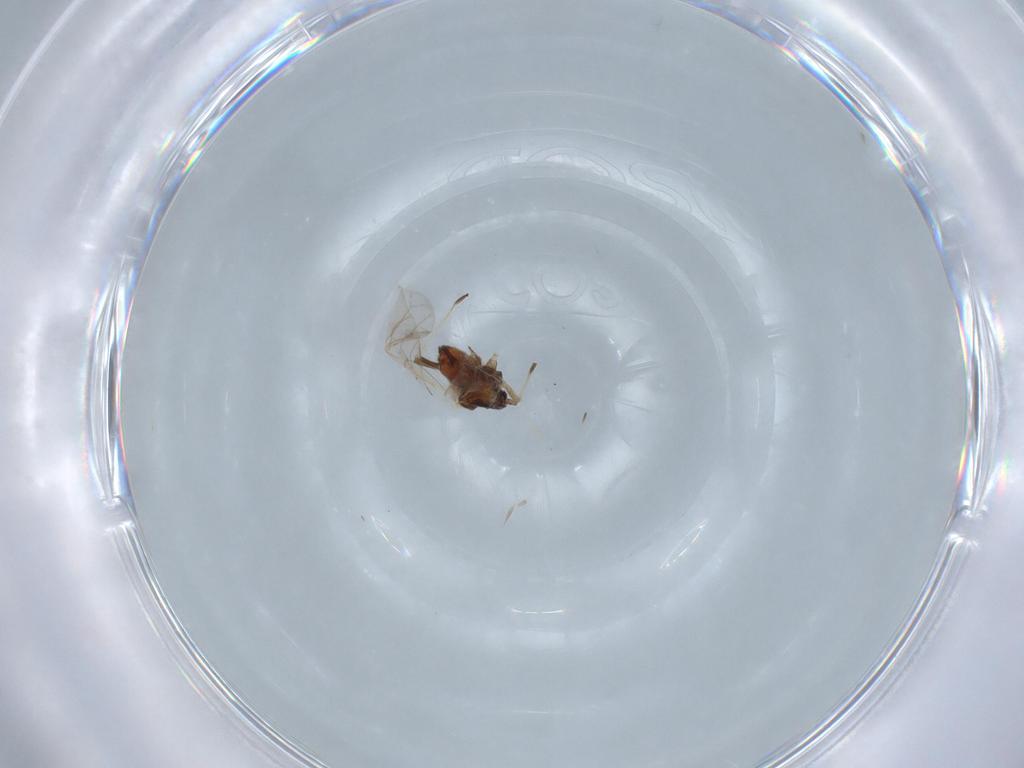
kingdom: Animalia
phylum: Arthropoda
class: Insecta
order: Hemiptera
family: Aphididae
